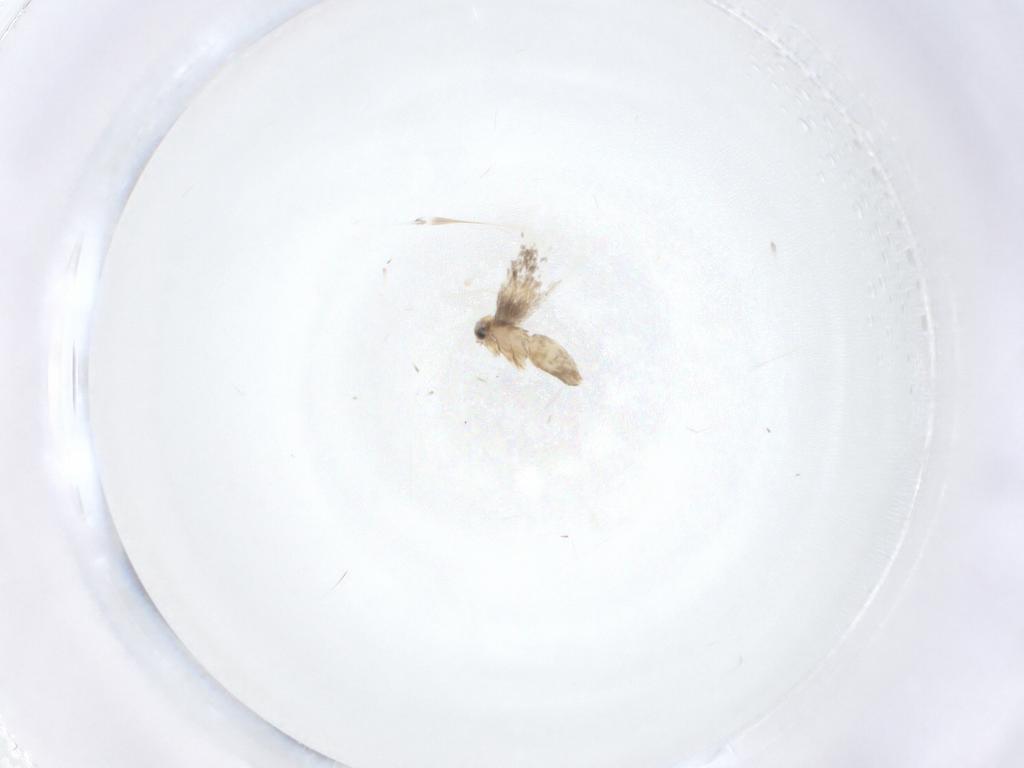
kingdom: Animalia
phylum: Arthropoda
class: Insecta
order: Lepidoptera
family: Nepticulidae
